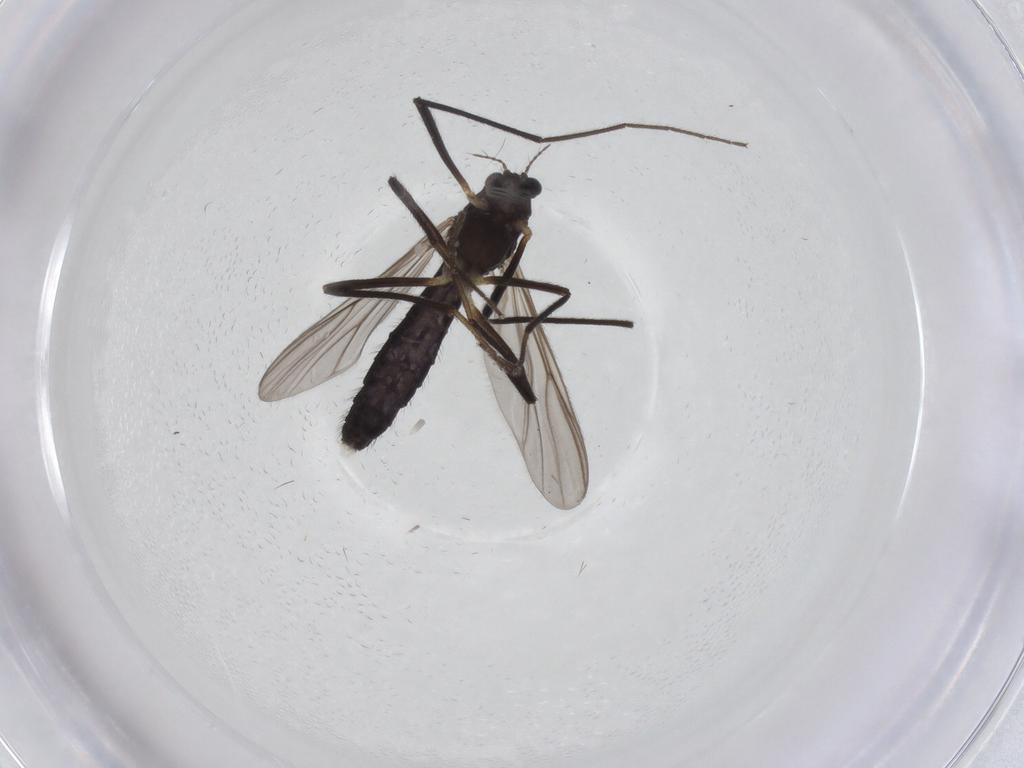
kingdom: Animalia
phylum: Arthropoda
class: Insecta
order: Diptera
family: Chironomidae
